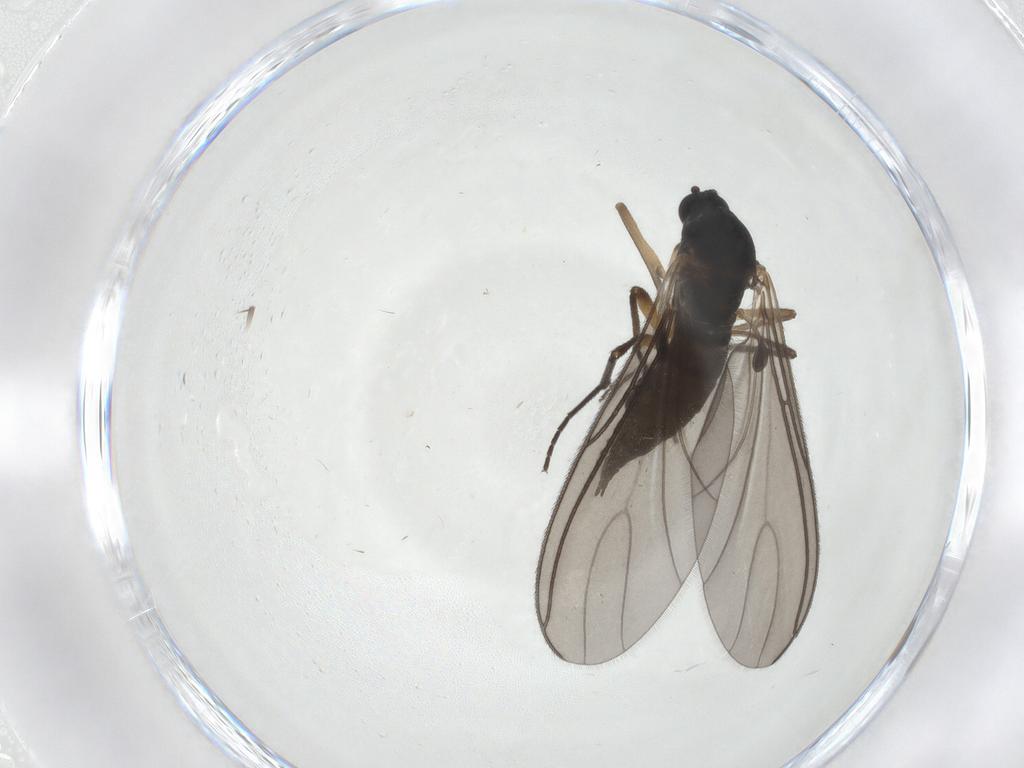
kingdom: Animalia
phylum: Arthropoda
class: Insecta
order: Diptera
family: Sciaridae
